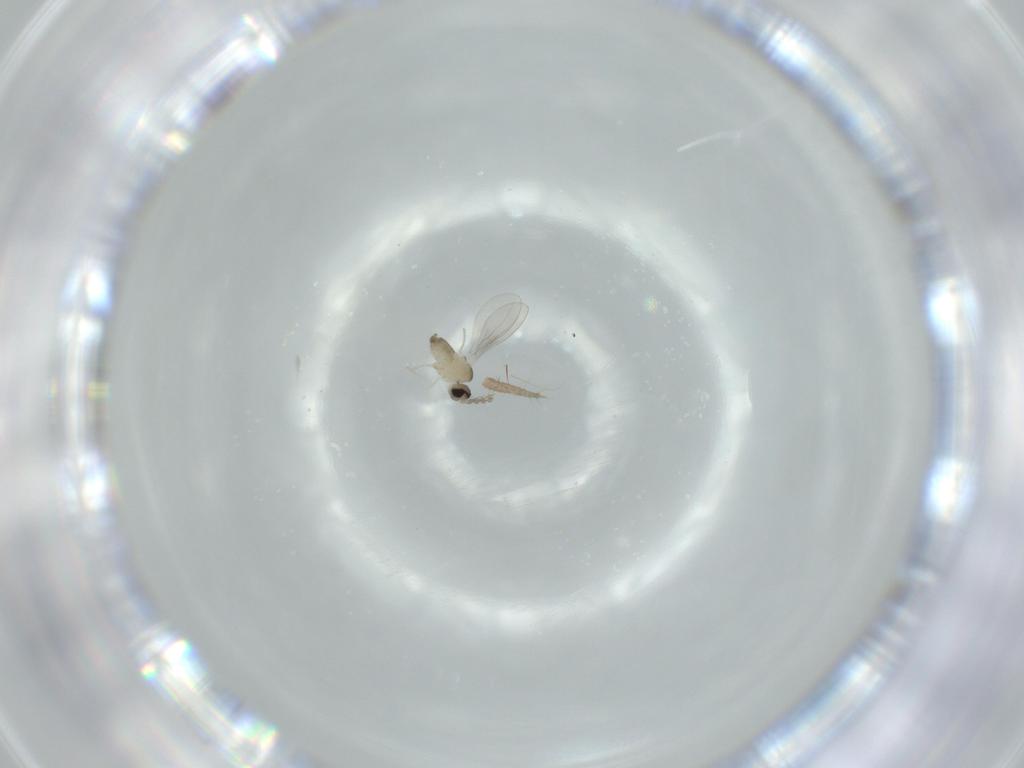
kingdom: Animalia
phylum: Arthropoda
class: Insecta
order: Diptera
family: Cecidomyiidae
